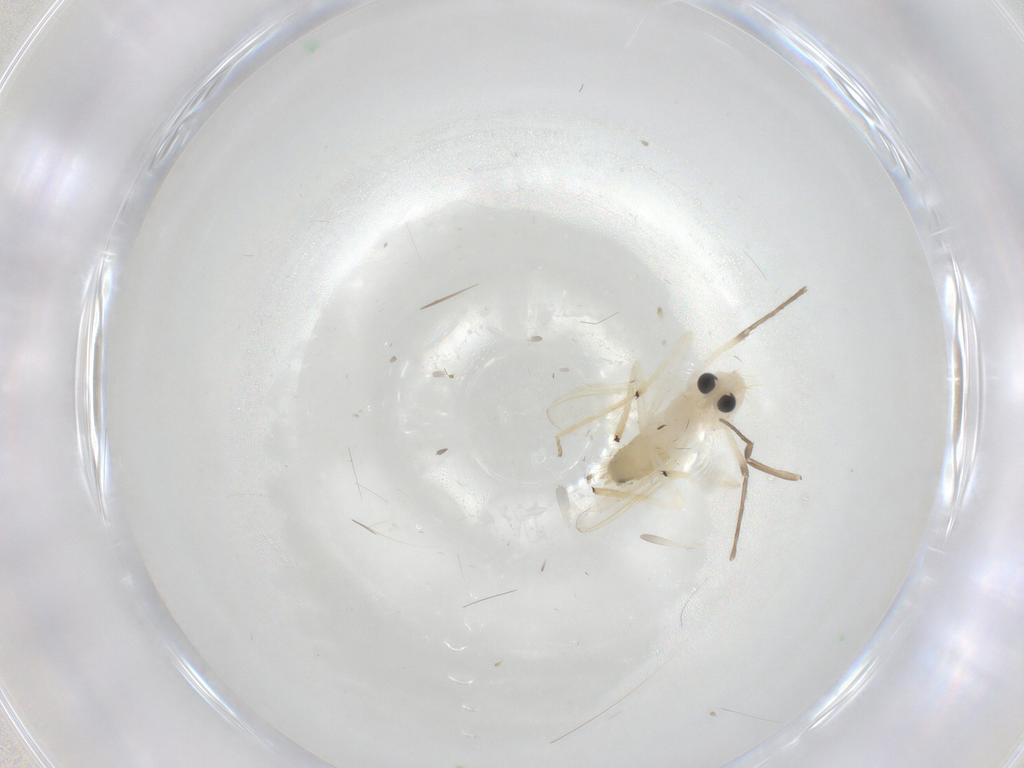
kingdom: Animalia
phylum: Arthropoda
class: Insecta
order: Diptera
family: Chironomidae
